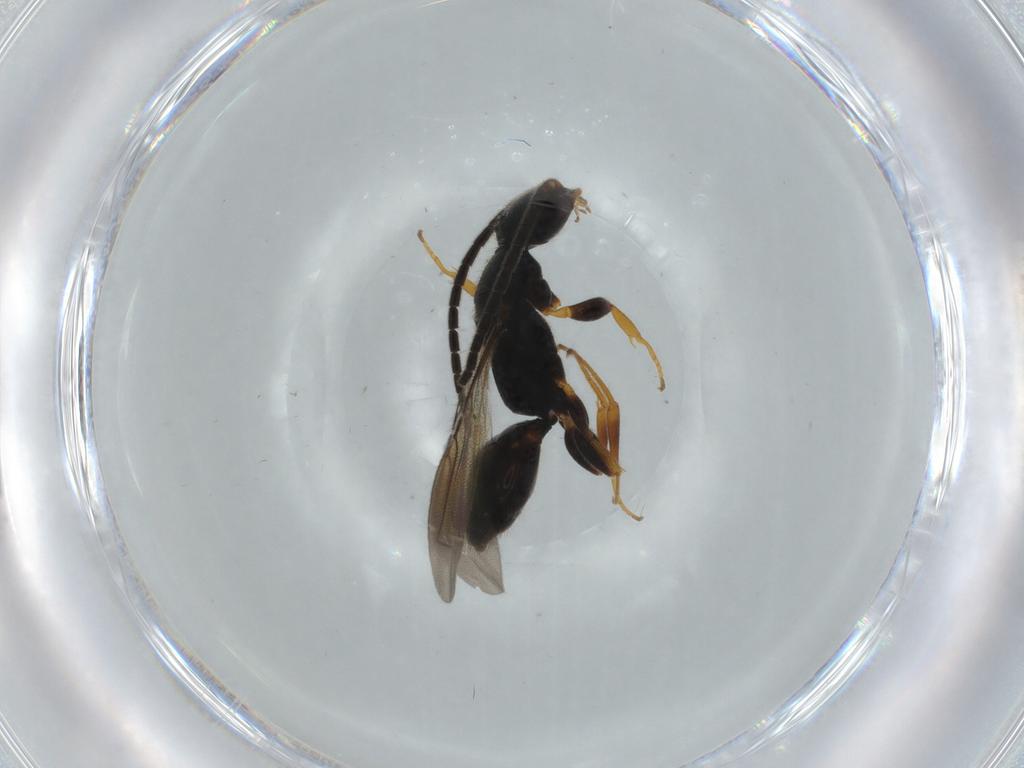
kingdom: Animalia
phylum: Arthropoda
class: Insecta
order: Hymenoptera
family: Bethylidae
